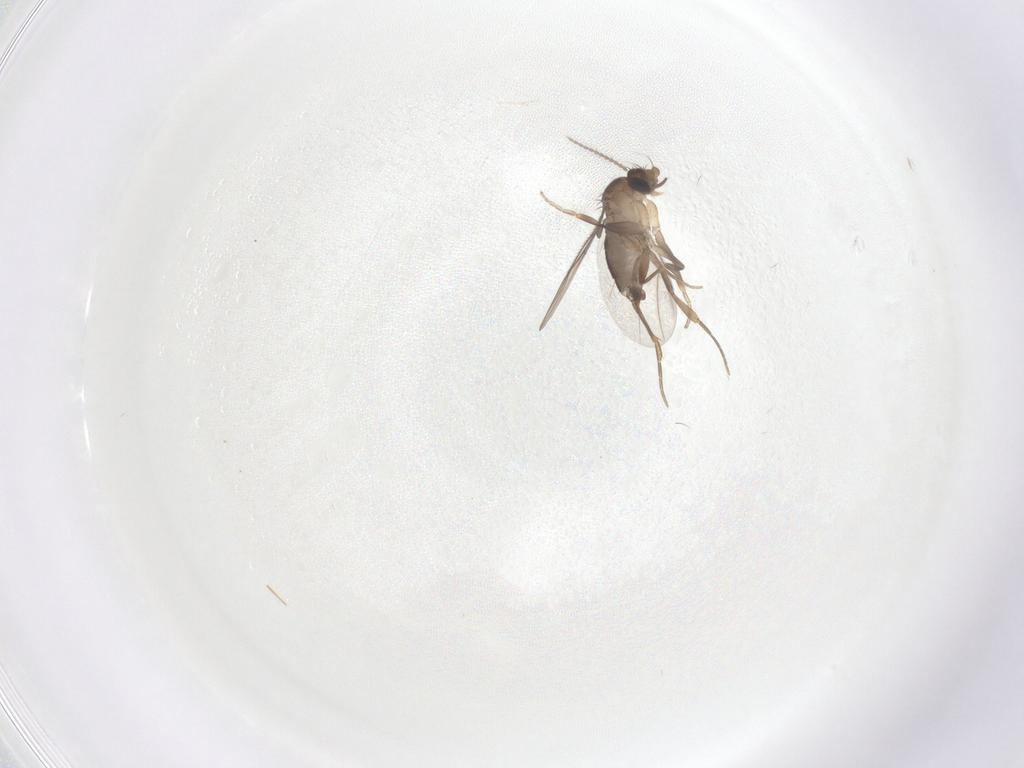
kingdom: Animalia
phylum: Arthropoda
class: Insecta
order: Diptera
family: Phoridae
